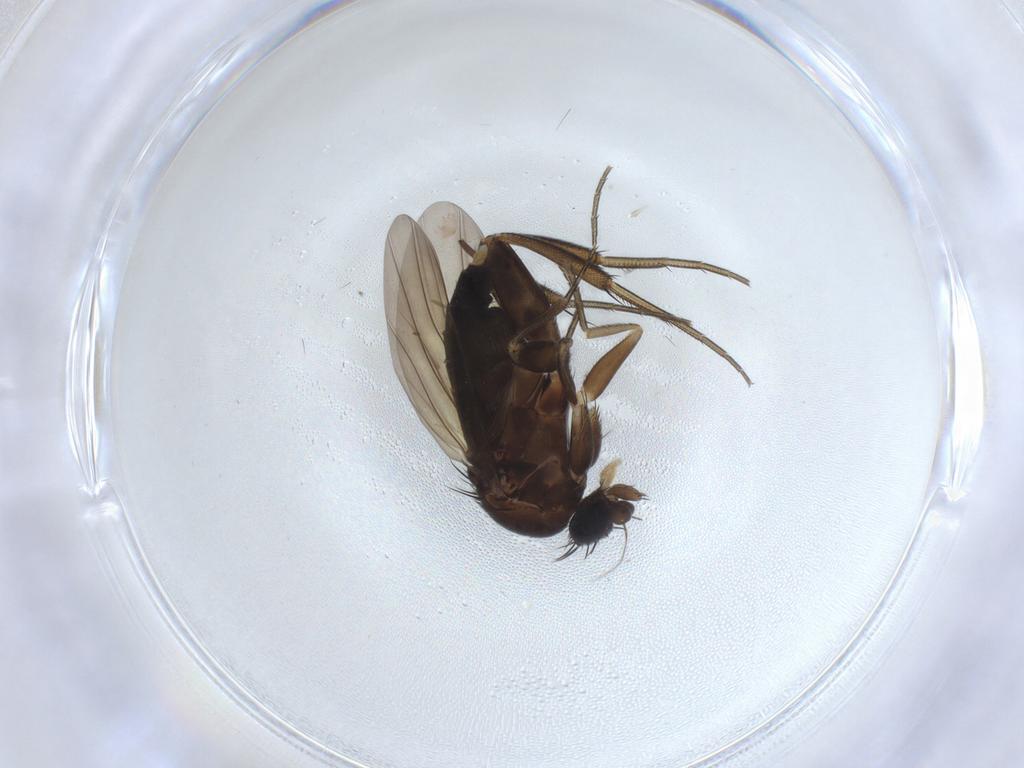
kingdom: Animalia
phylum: Arthropoda
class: Insecta
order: Diptera
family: Phoridae
